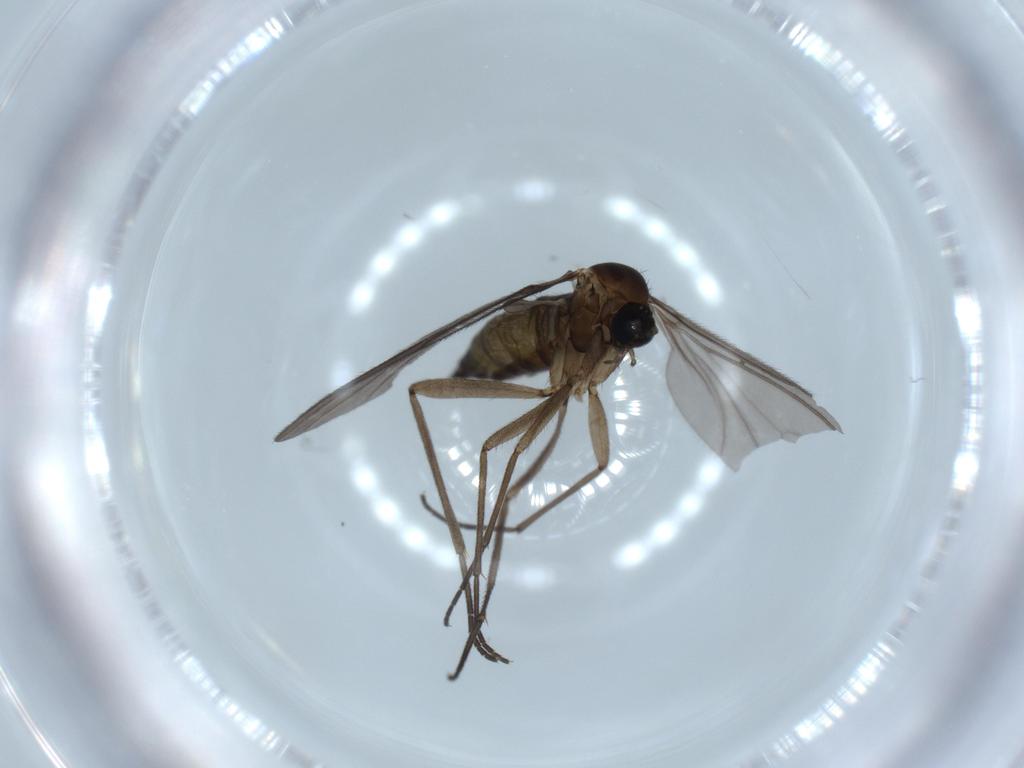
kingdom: Animalia
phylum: Arthropoda
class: Insecta
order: Diptera
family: Sciaridae
